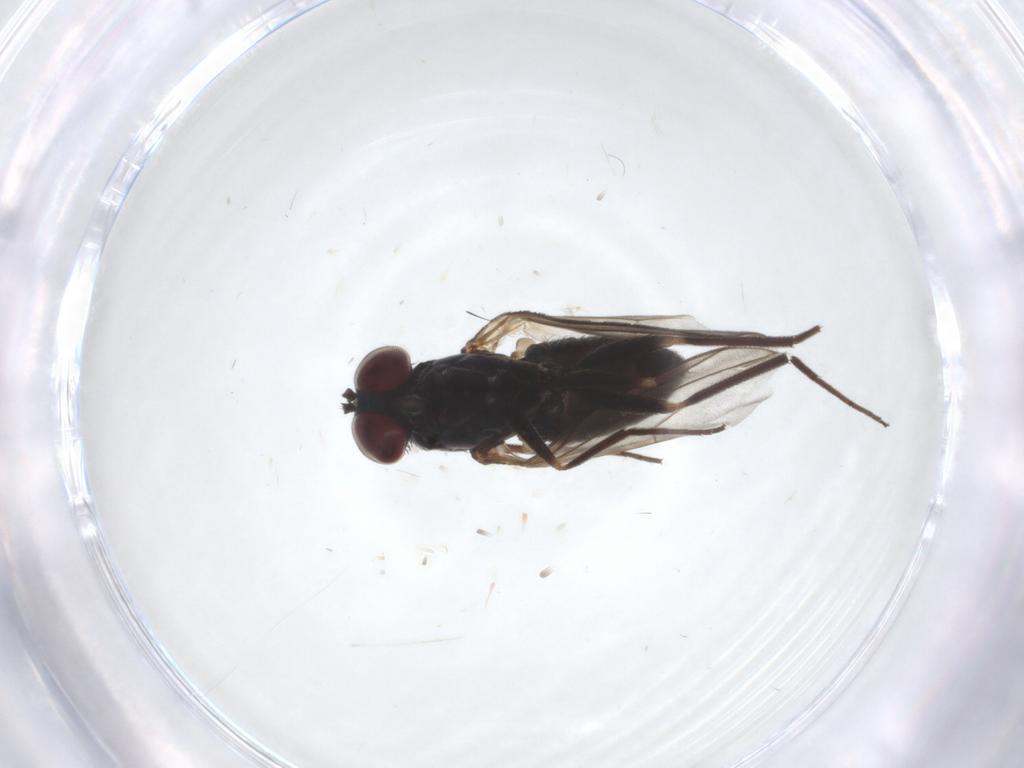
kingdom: Animalia
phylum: Arthropoda
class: Insecta
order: Diptera
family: Dolichopodidae
